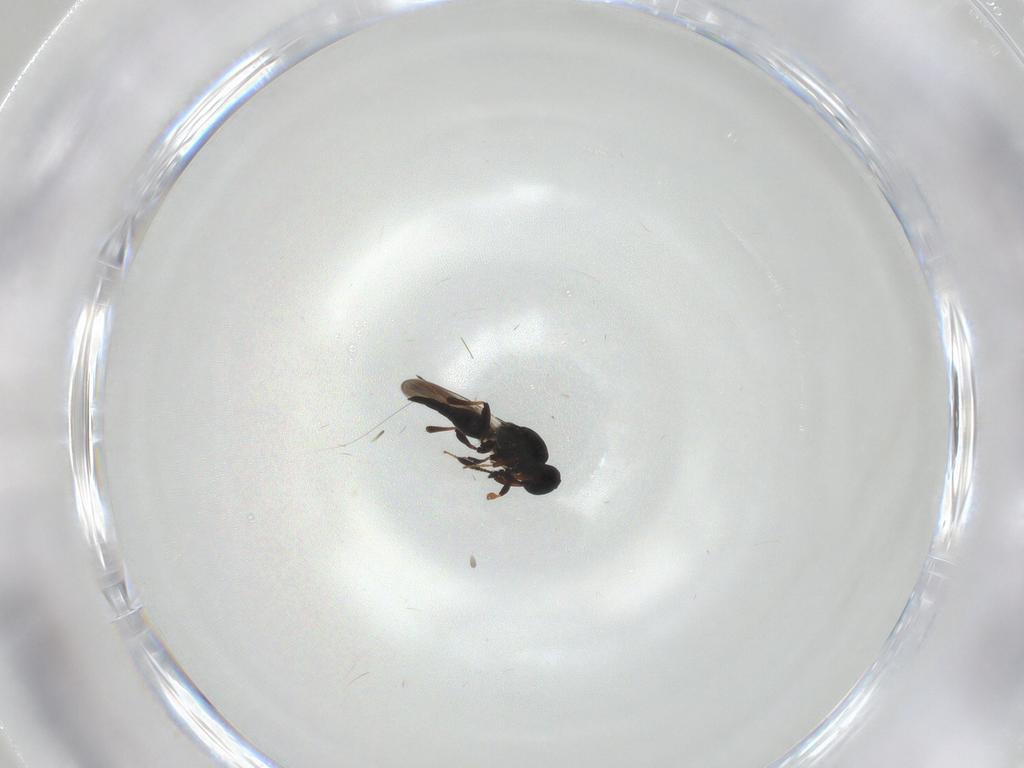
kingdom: Animalia
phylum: Arthropoda
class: Insecta
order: Hymenoptera
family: Platygastridae
